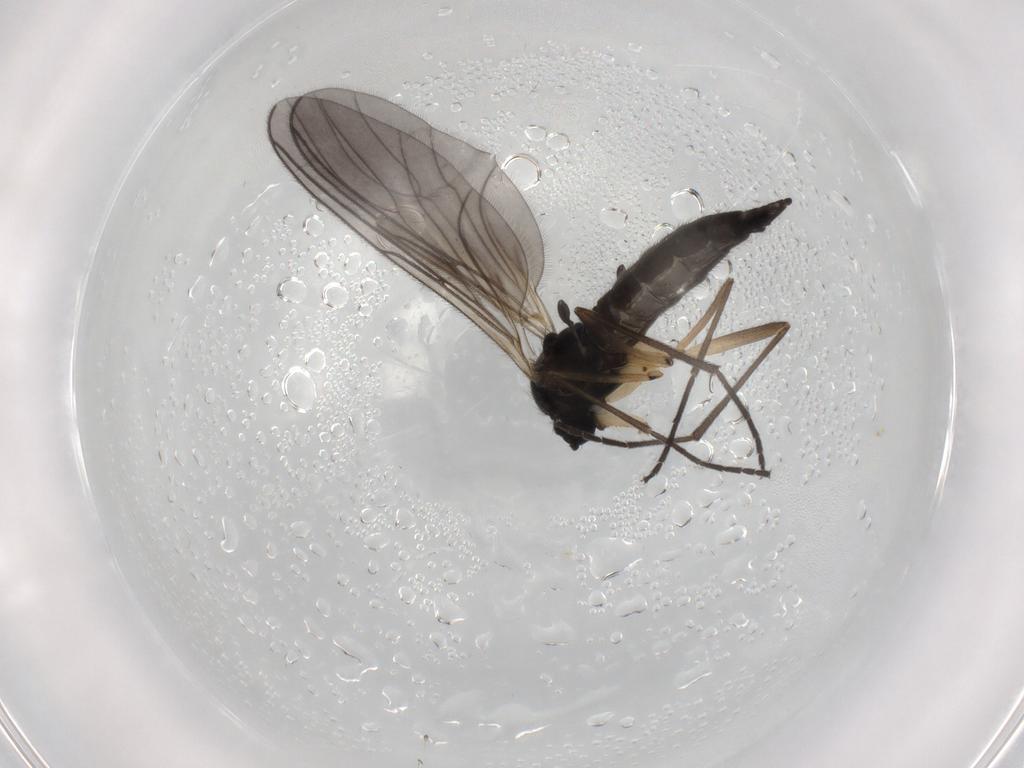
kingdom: Animalia
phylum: Arthropoda
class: Insecta
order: Diptera
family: Sciaridae
